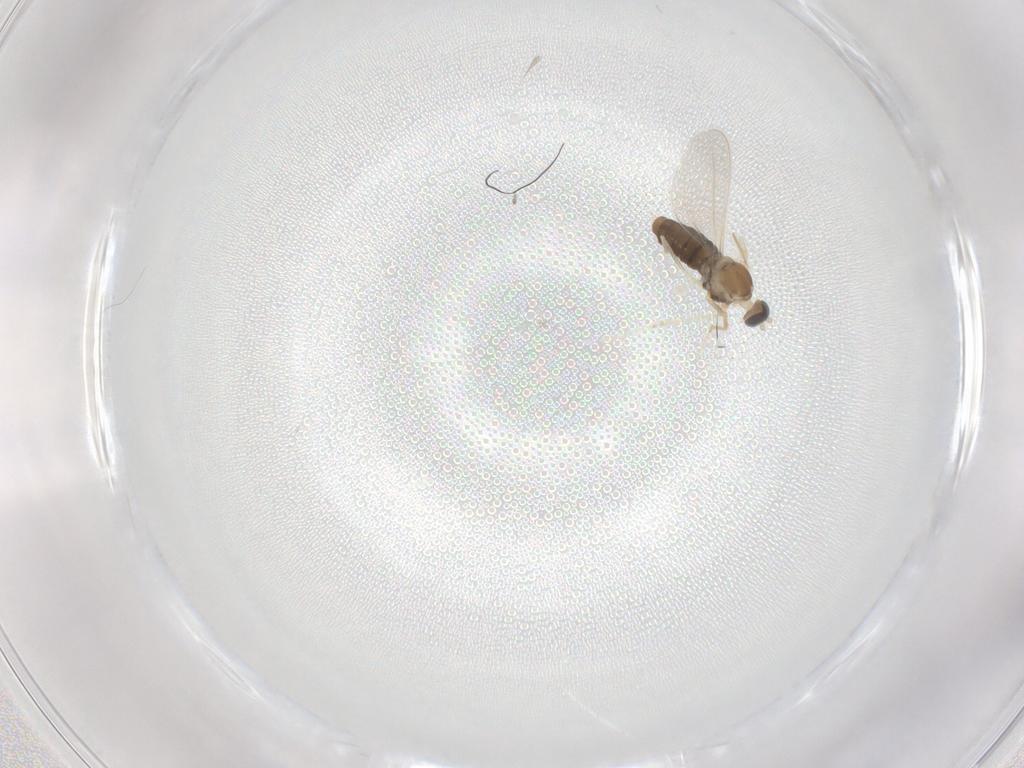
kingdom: Animalia
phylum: Arthropoda
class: Insecta
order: Diptera
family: Cecidomyiidae
